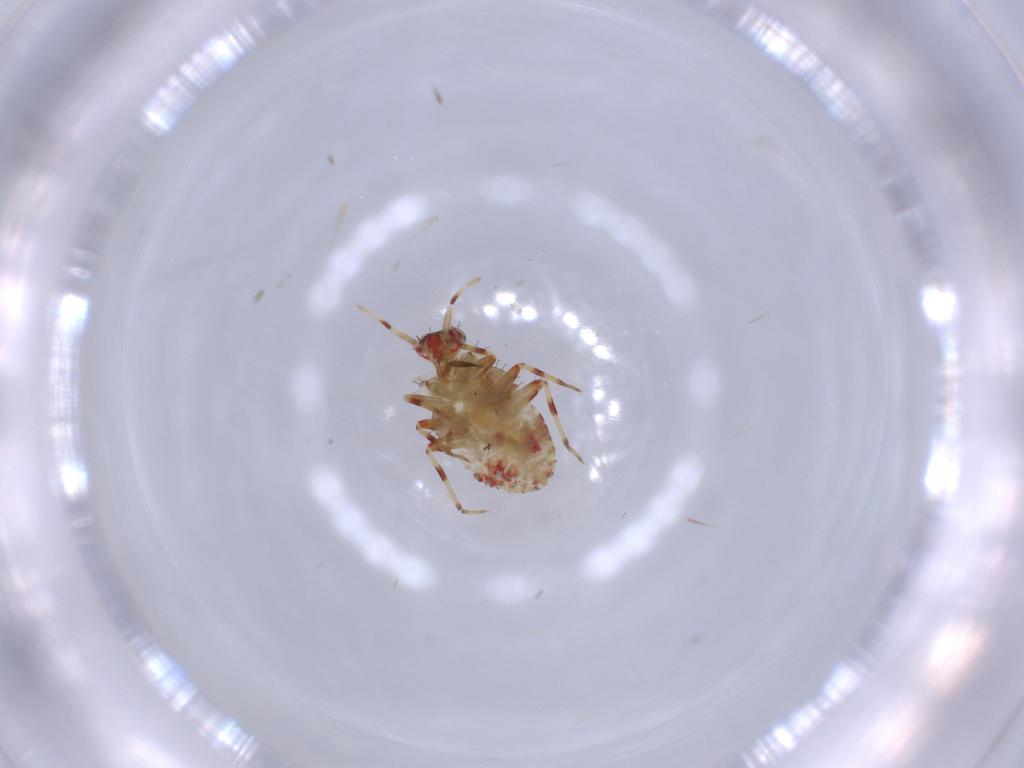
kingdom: Animalia
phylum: Arthropoda
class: Insecta
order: Hemiptera
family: Miridae
